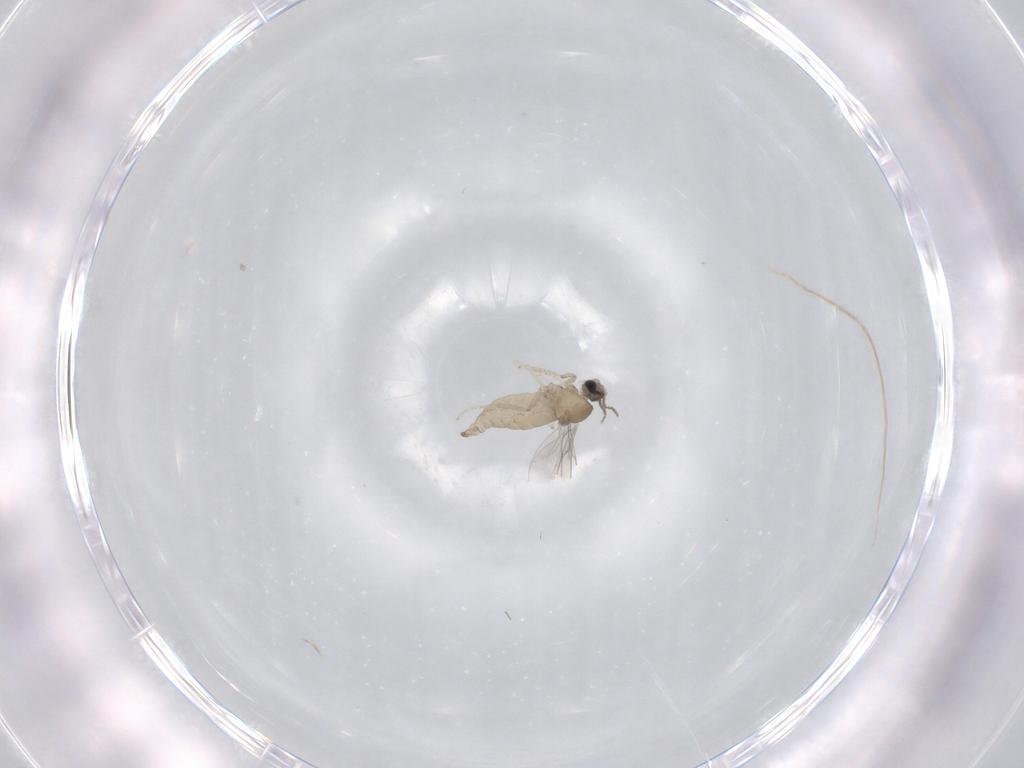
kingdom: Animalia
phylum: Arthropoda
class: Insecta
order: Diptera
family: Cecidomyiidae
